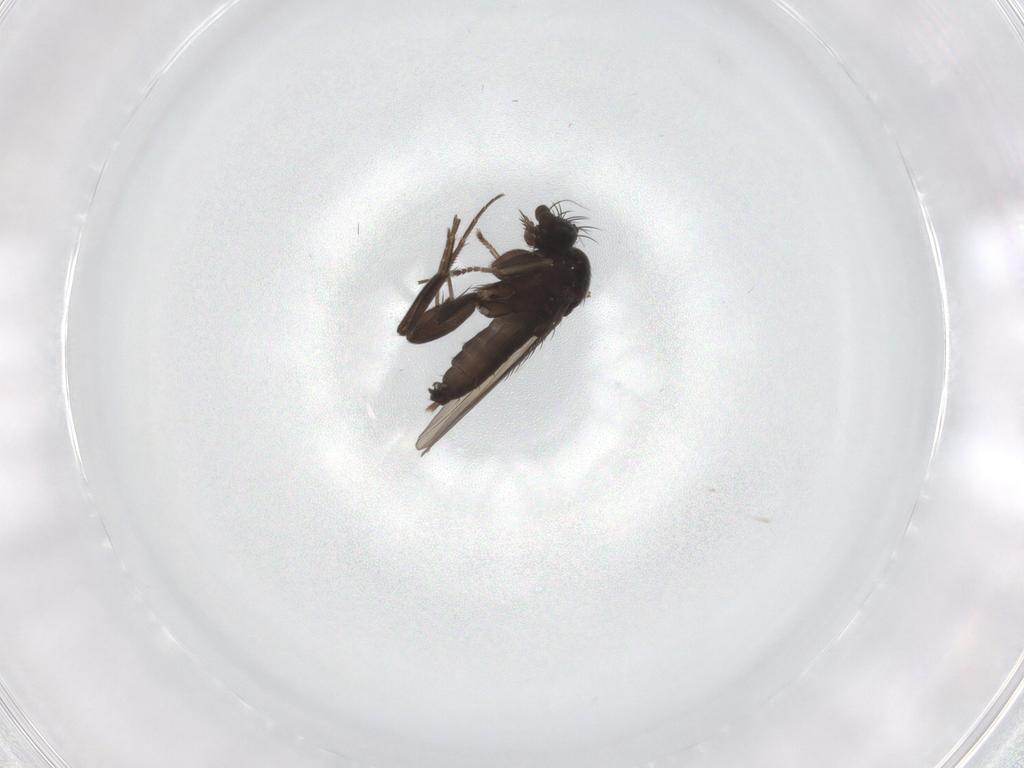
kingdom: Animalia
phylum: Arthropoda
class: Insecta
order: Diptera
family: Phoridae
